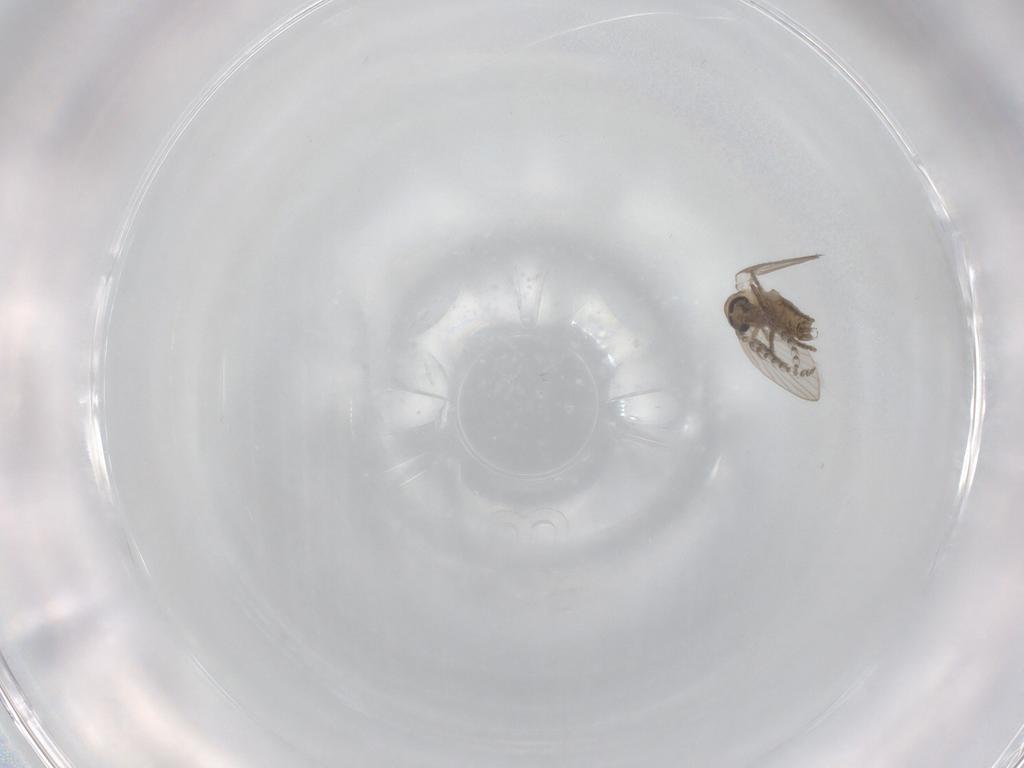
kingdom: Animalia
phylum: Arthropoda
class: Insecta
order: Diptera
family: Psychodidae
